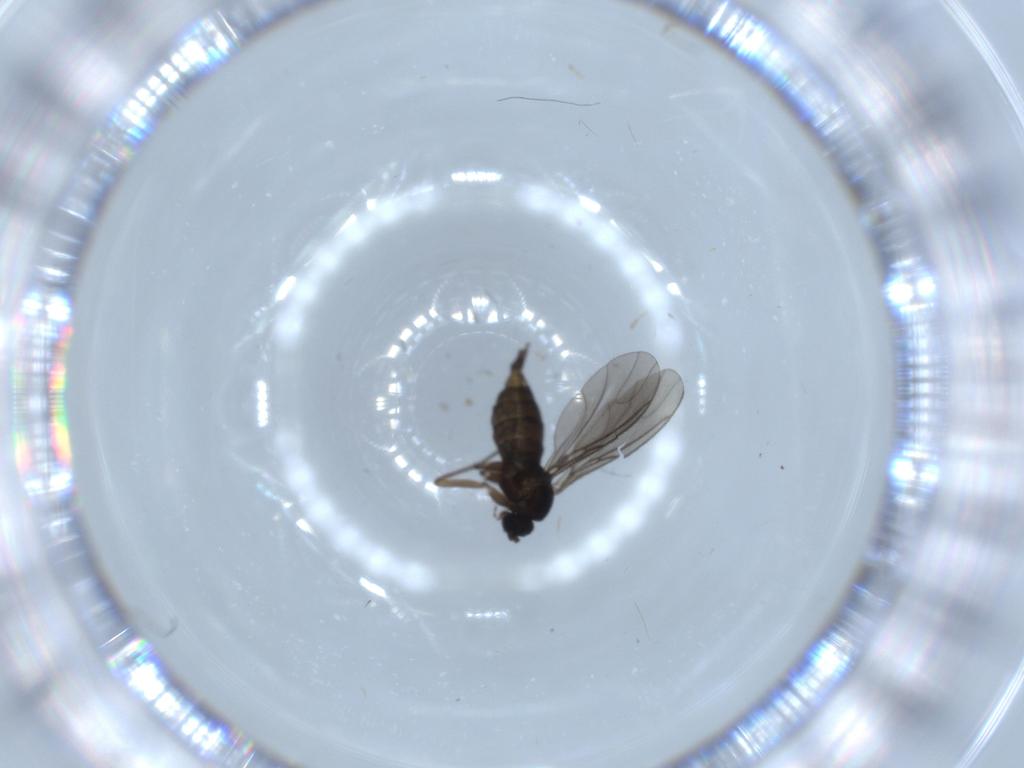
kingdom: Animalia
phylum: Arthropoda
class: Insecta
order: Diptera
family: Sciaridae
